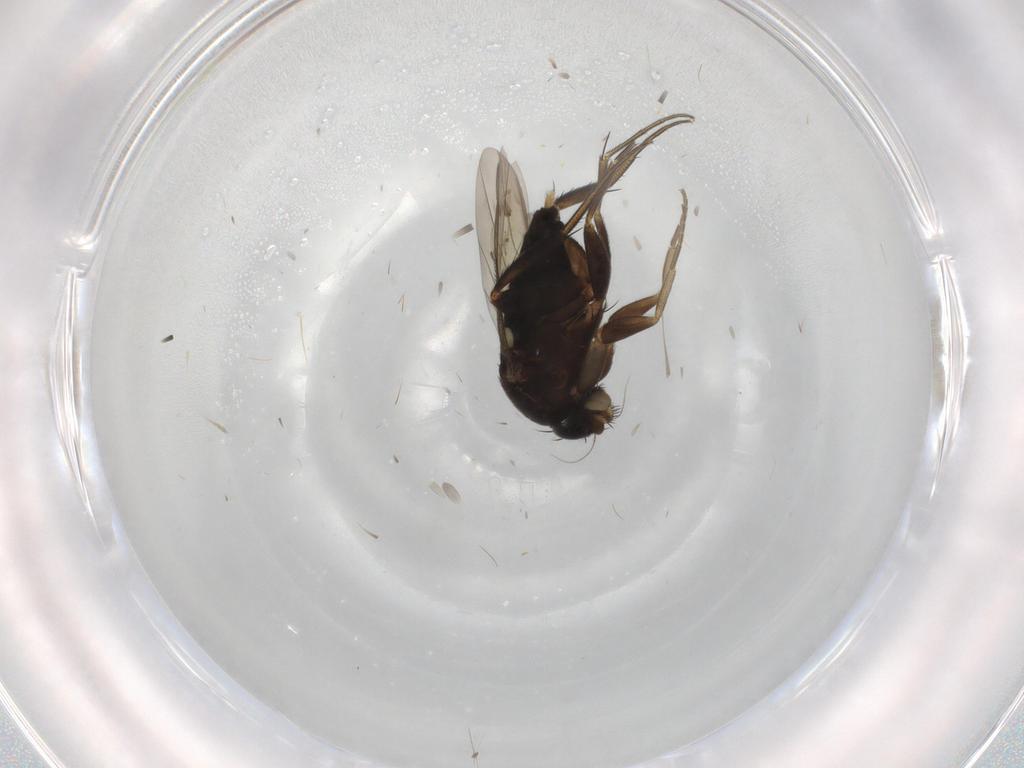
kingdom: Animalia
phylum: Arthropoda
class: Insecta
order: Diptera
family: Phoridae
